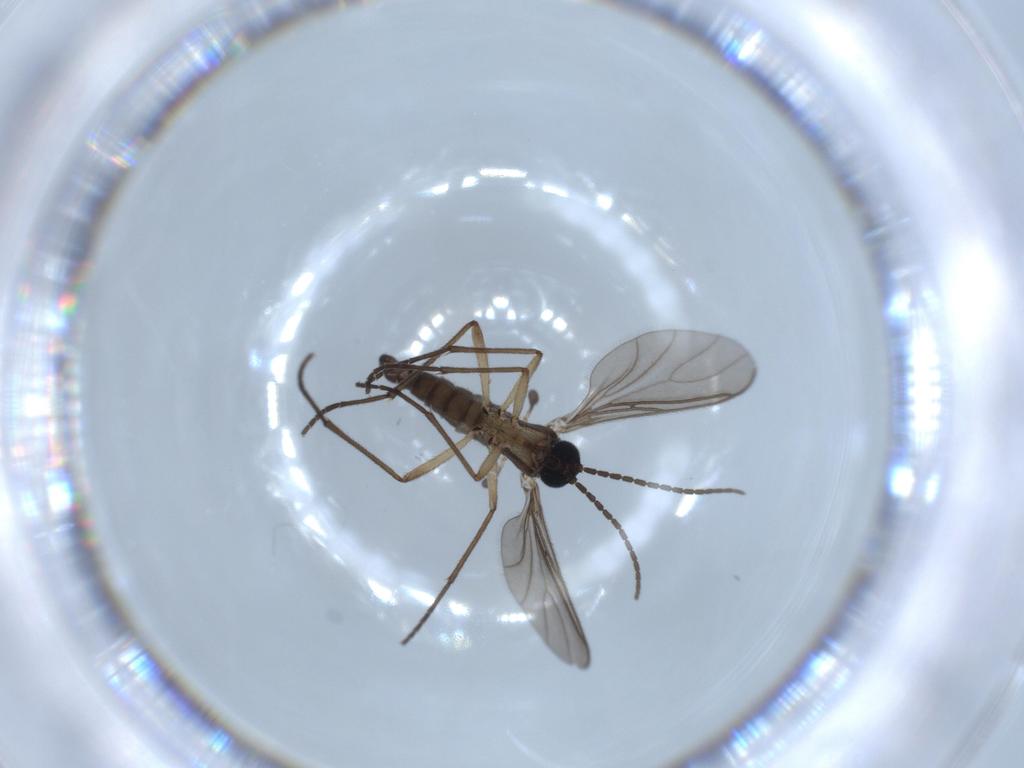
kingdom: Animalia
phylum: Arthropoda
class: Insecta
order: Diptera
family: Sciaridae
